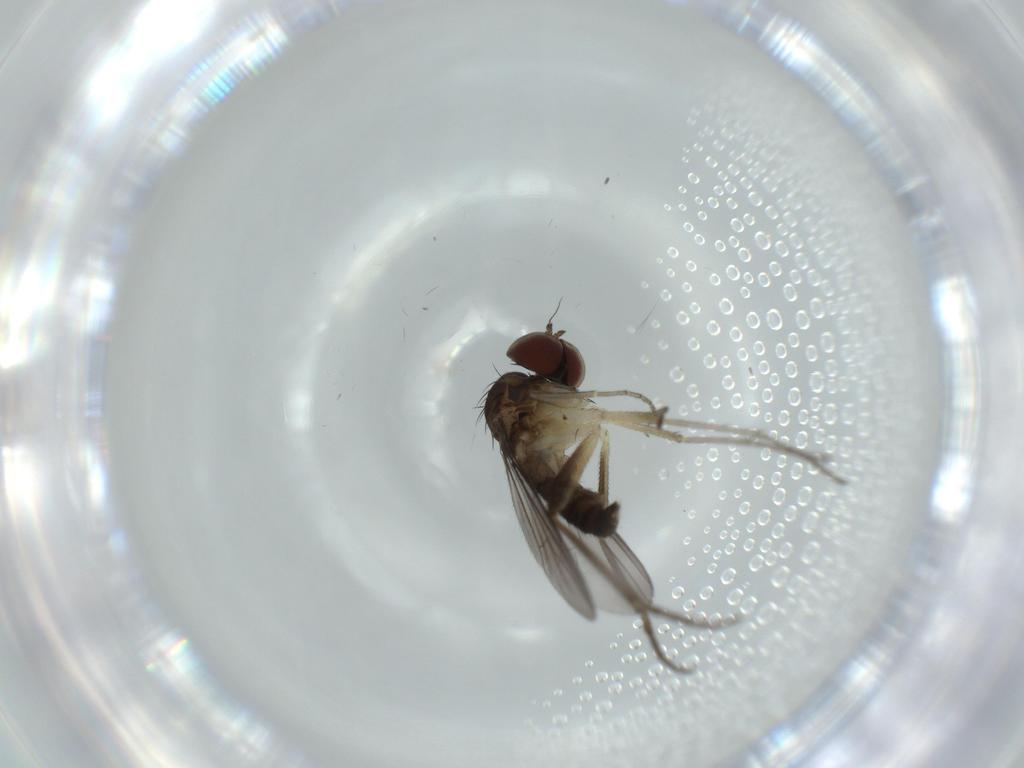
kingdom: Animalia
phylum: Arthropoda
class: Insecta
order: Diptera
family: Dolichopodidae
